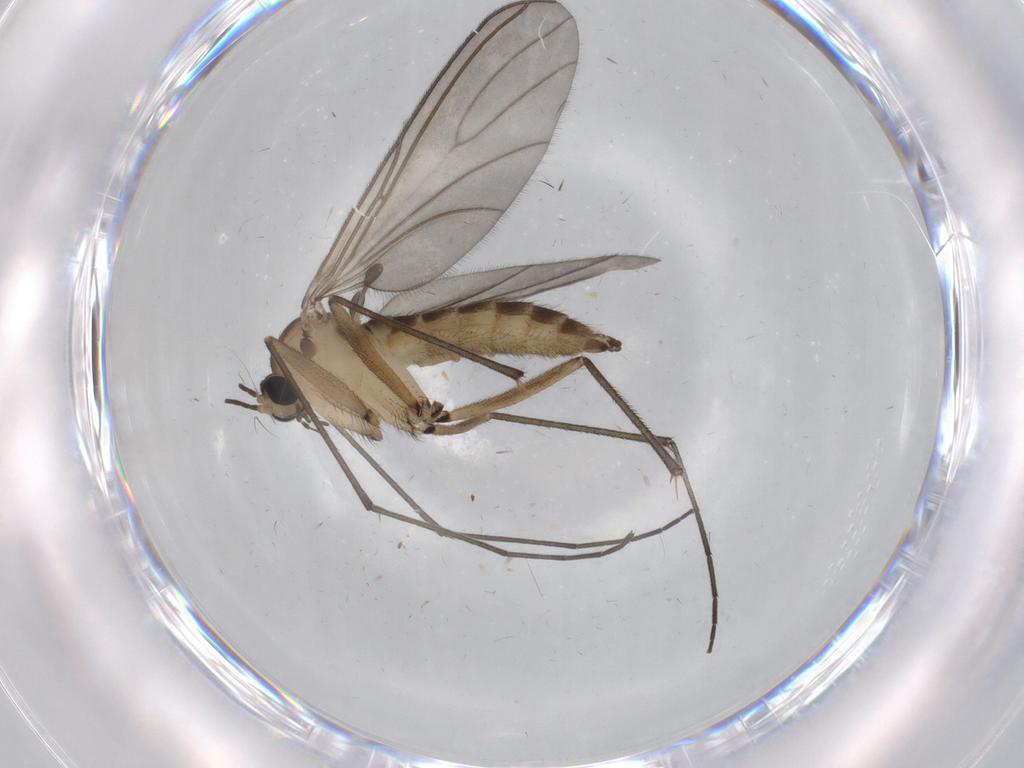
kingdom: Animalia
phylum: Arthropoda
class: Insecta
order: Diptera
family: Sciaridae
